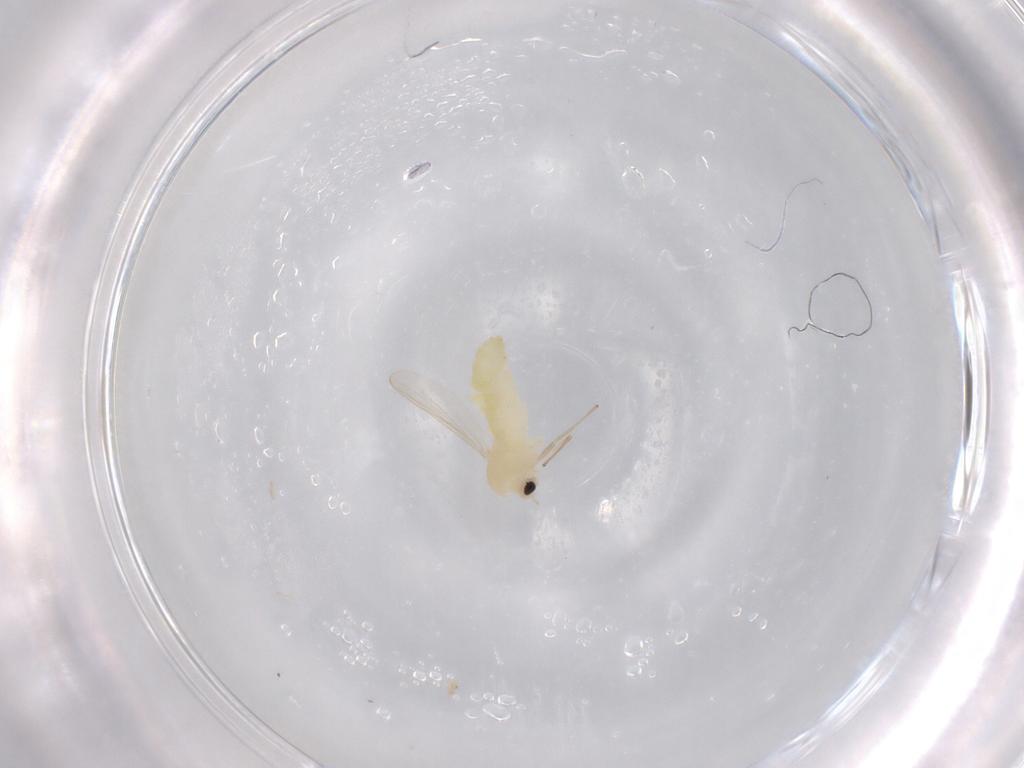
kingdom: Animalia
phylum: Arthropoda
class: Insecta
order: Diptera
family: Chironomidae
